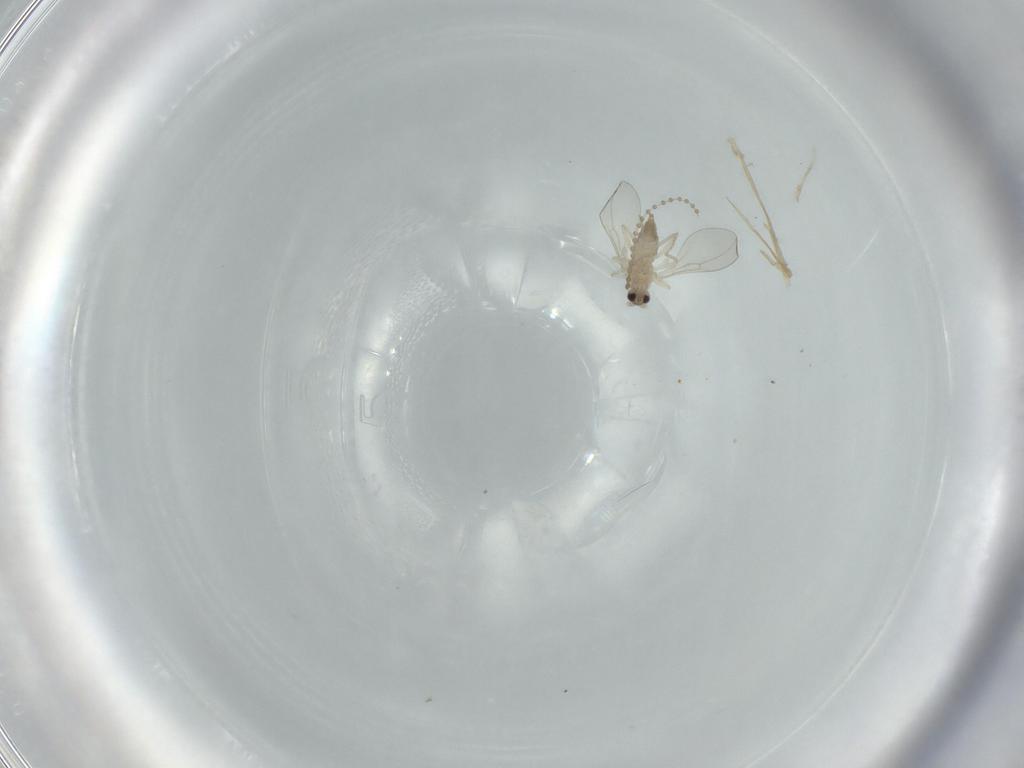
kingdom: Animalia
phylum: Arthropoda
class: Insecta
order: Diptera
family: Cecidomyiidae
